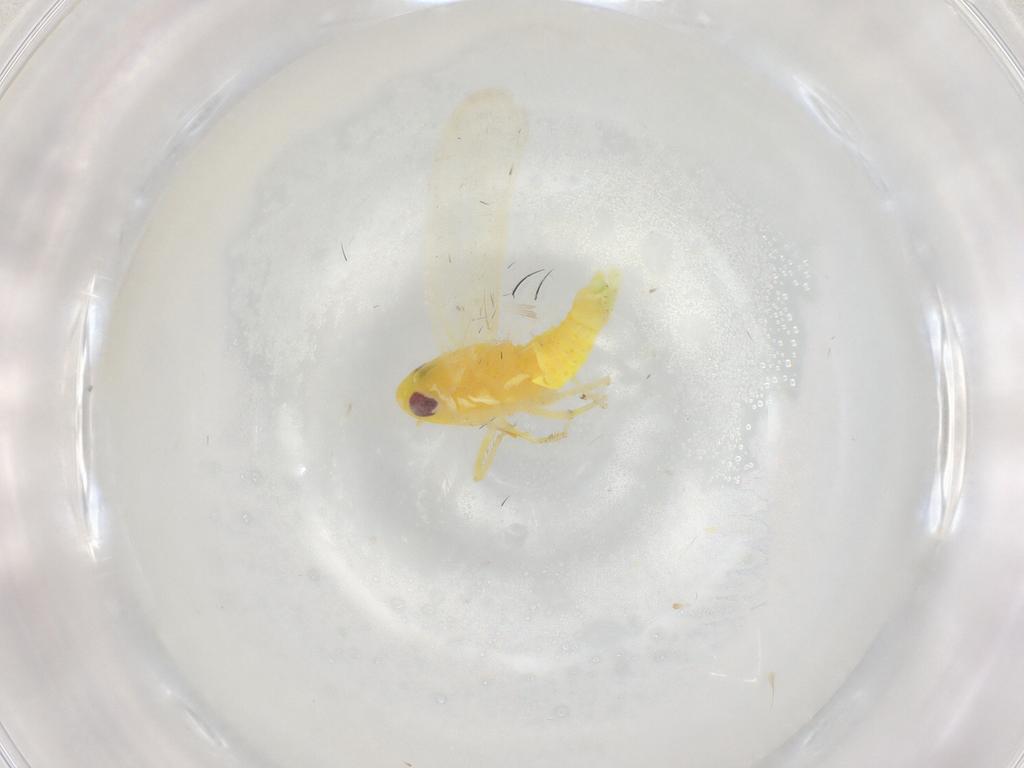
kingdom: Animalia
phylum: Arthropoda
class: Insecta
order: Hemiptera
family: Cicadellidae
